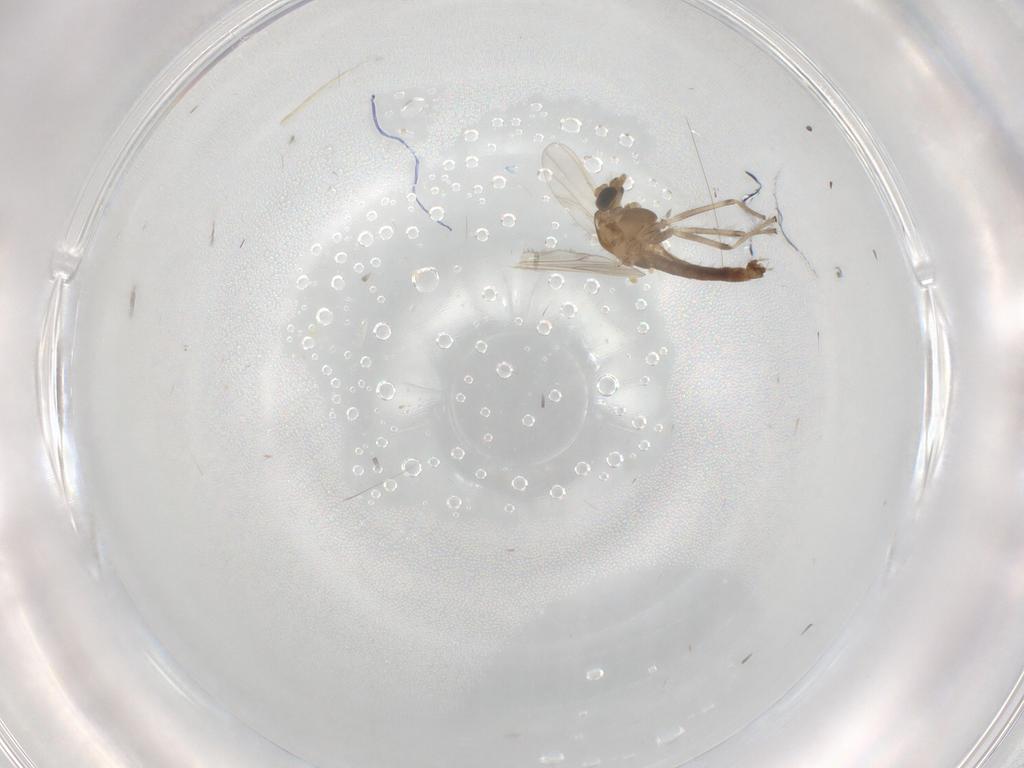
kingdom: Animalia
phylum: Arthropoda
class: Insecta
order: Diptera
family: Chironomidae
